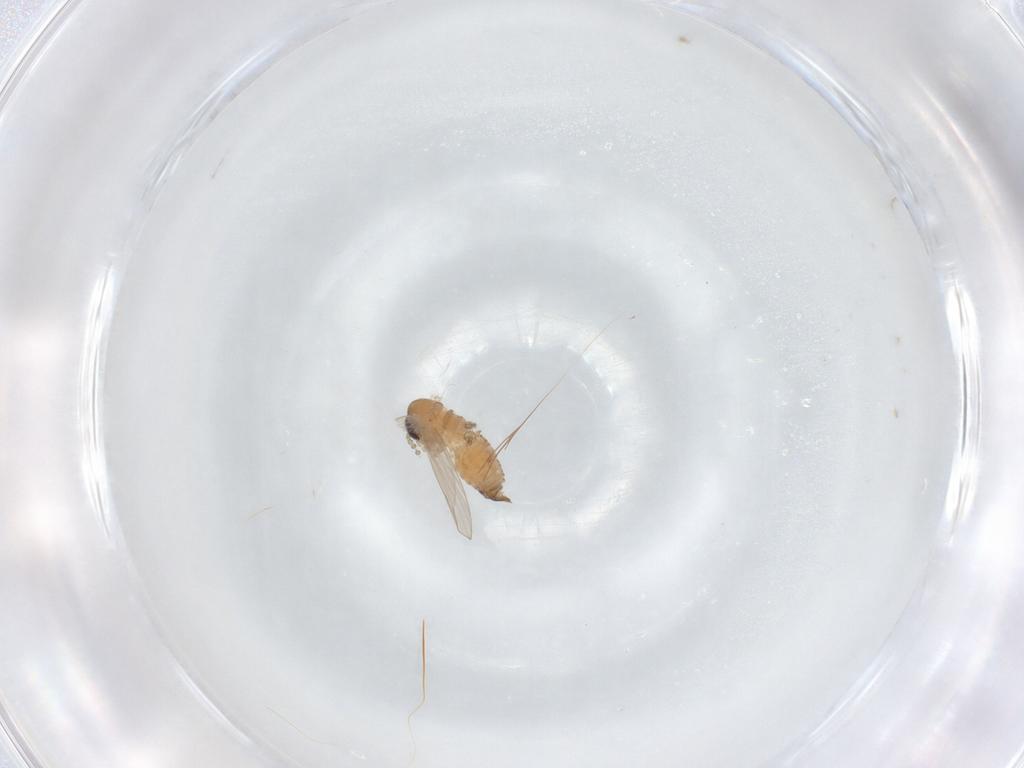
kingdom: Animalia
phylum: Arthropoda
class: Insecta
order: Diptera
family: Psychodidae
